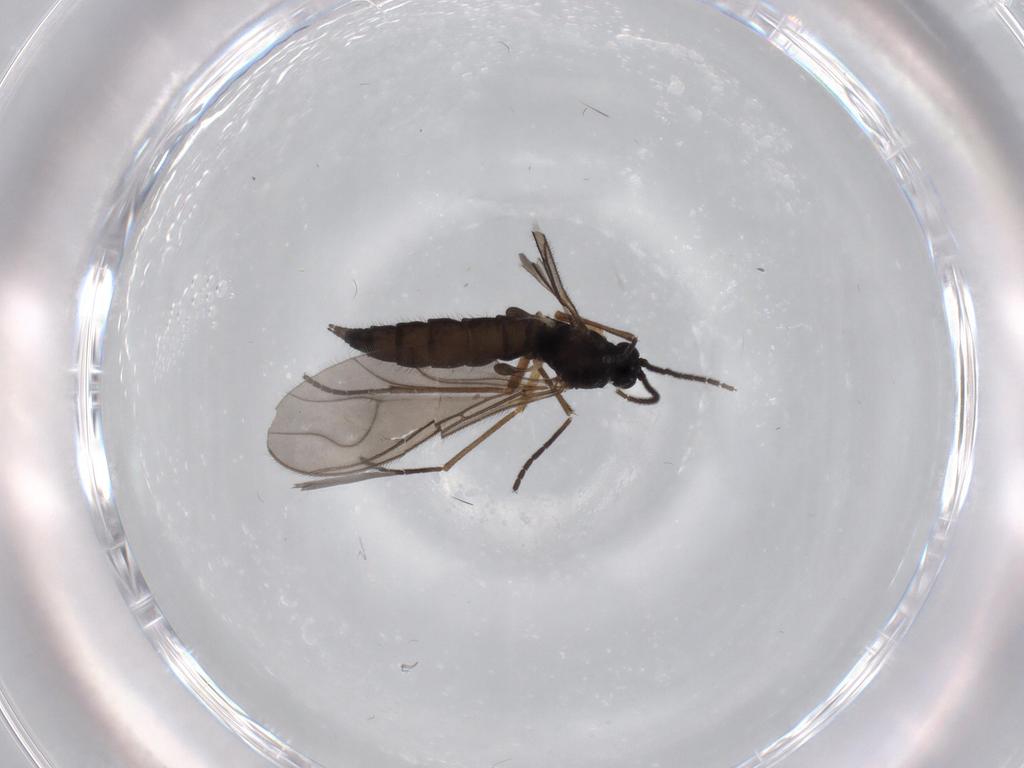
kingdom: Animalia
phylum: Arthropoda
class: Insecta
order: Diptera
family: Sciaridae
